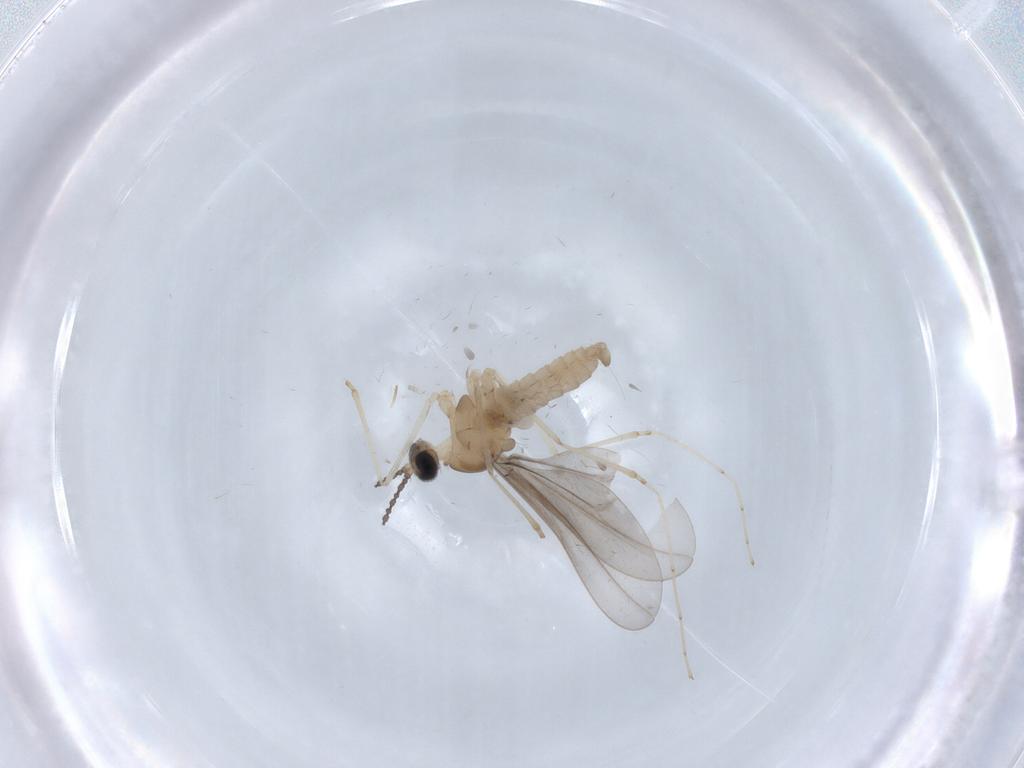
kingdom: Animalia
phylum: Arthropoda
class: Insecta
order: Diptera
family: Cecidomyiidae
